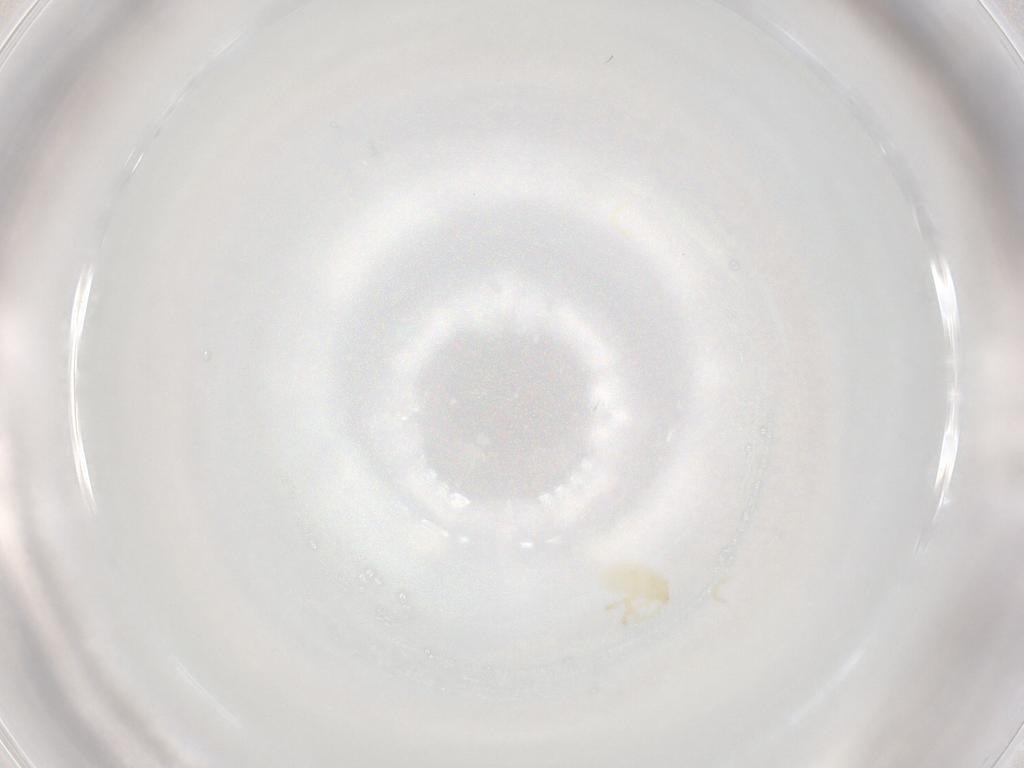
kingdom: Animalia
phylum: Arthropoda
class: Arachnida
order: Trombidiformes
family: Trombidiidae
